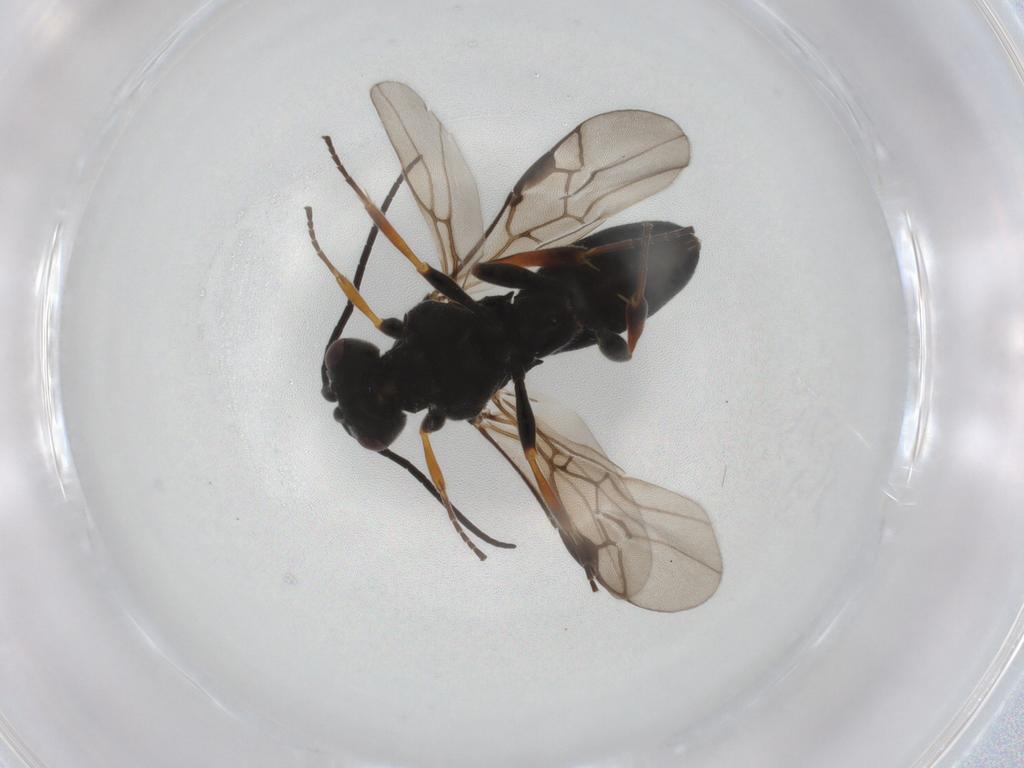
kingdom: Animalia
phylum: Arthropoda
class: Insecta
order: Hymenoptera
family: Braconidae
